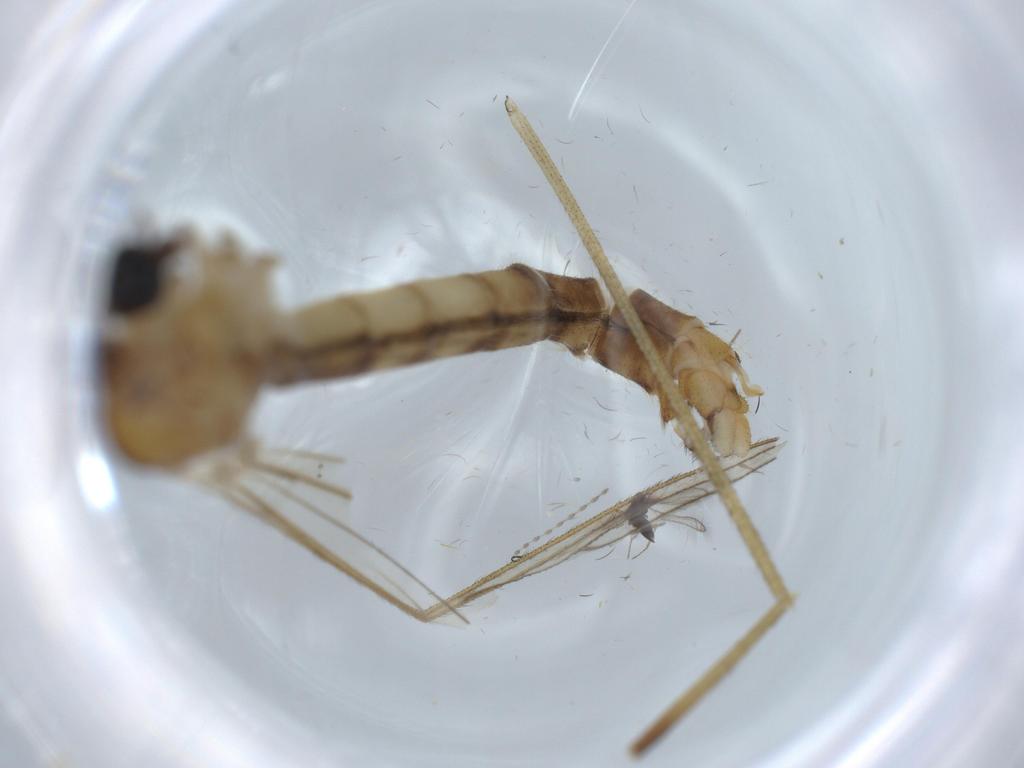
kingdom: Animalia
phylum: Arthropoda
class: Insecta
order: Diptera
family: Limoniidae
